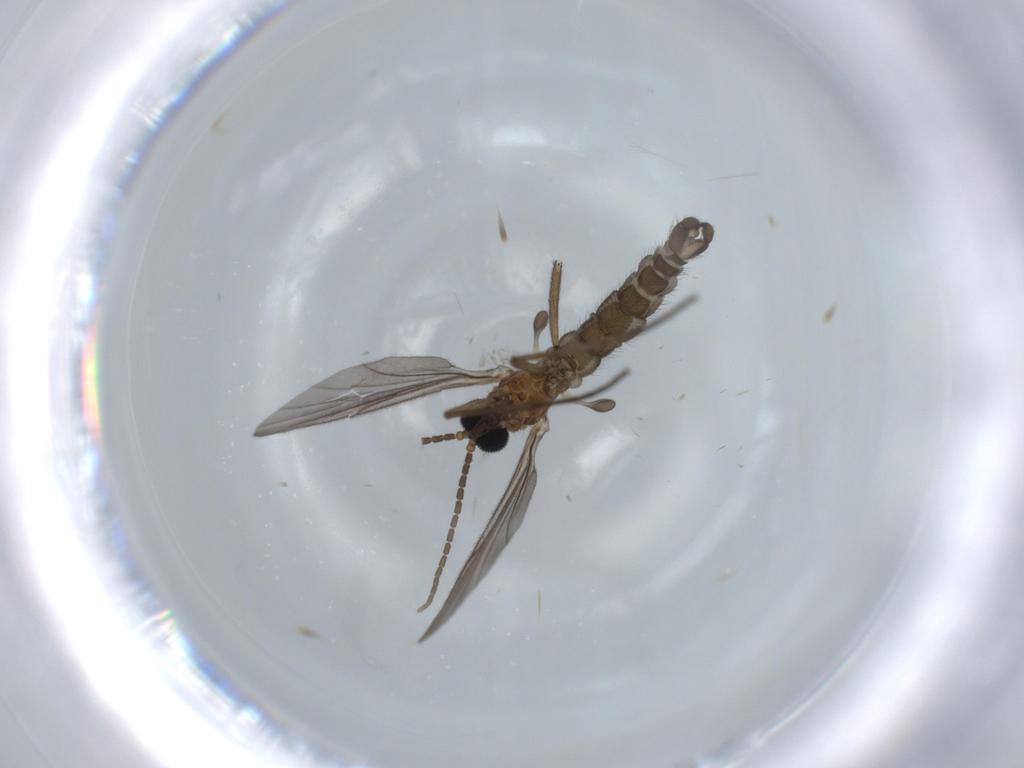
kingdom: Animalia
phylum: Arthropoda
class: Insecta
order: Diptera
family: Sciaridae
